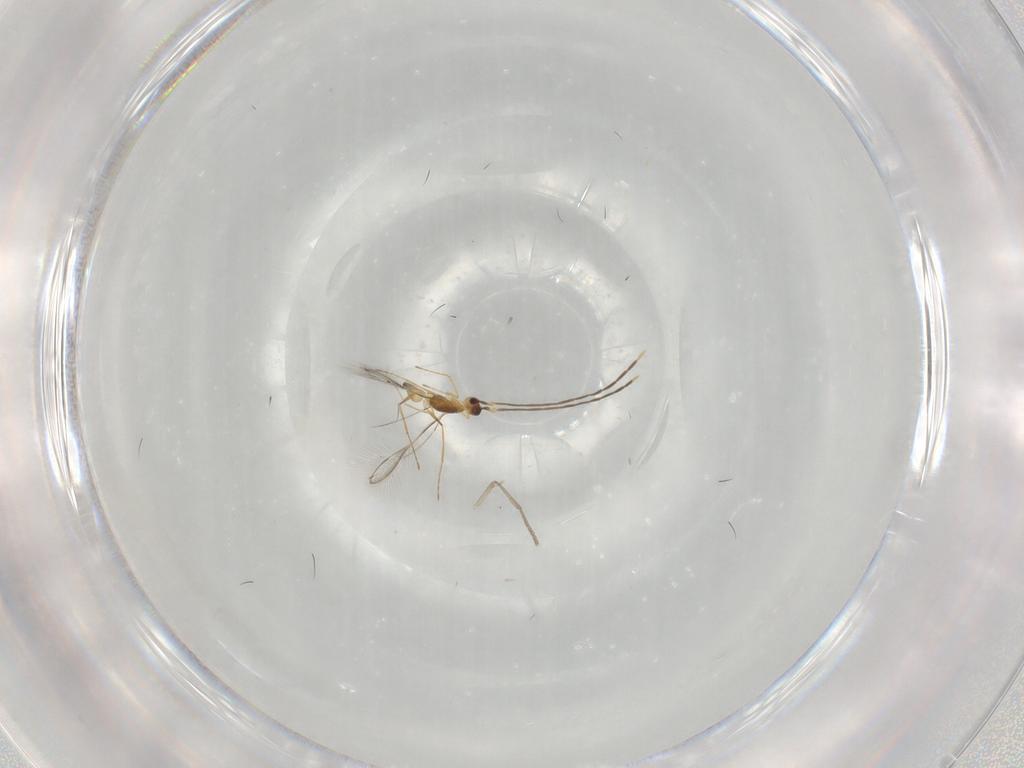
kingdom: Animalia
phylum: Arthropoda
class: Insecta
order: Hymenoptera
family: Mymaridae
